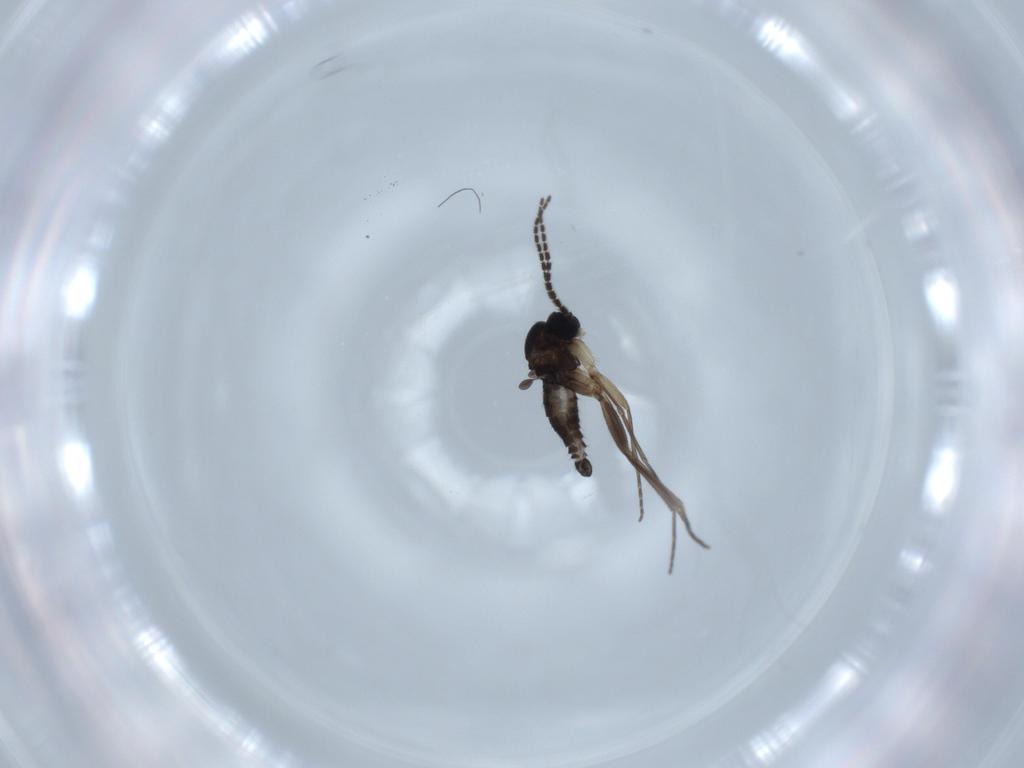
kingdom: Animalia
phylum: Arthropoda
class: Insecta
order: Diptera
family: Sciaridae
